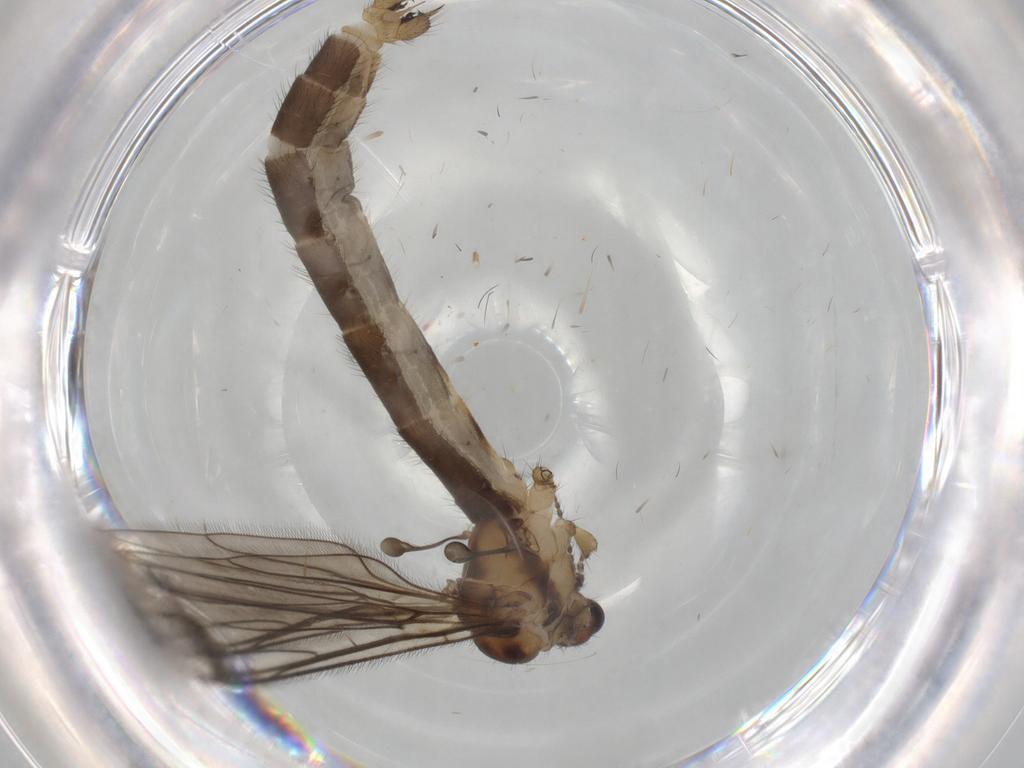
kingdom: Animalia
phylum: Arthropoda
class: Insecta
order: Diptera
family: Limoniidae
